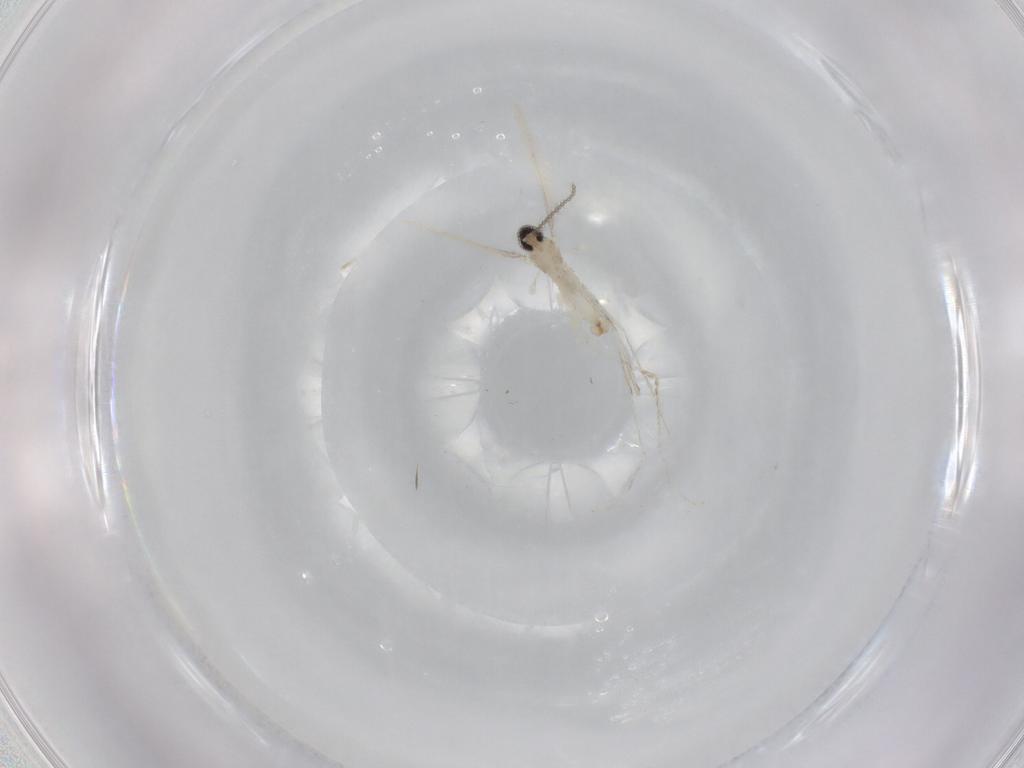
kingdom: Animalia
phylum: Arthropoda
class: Insecta
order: Diptera
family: Cecidomyiidae
